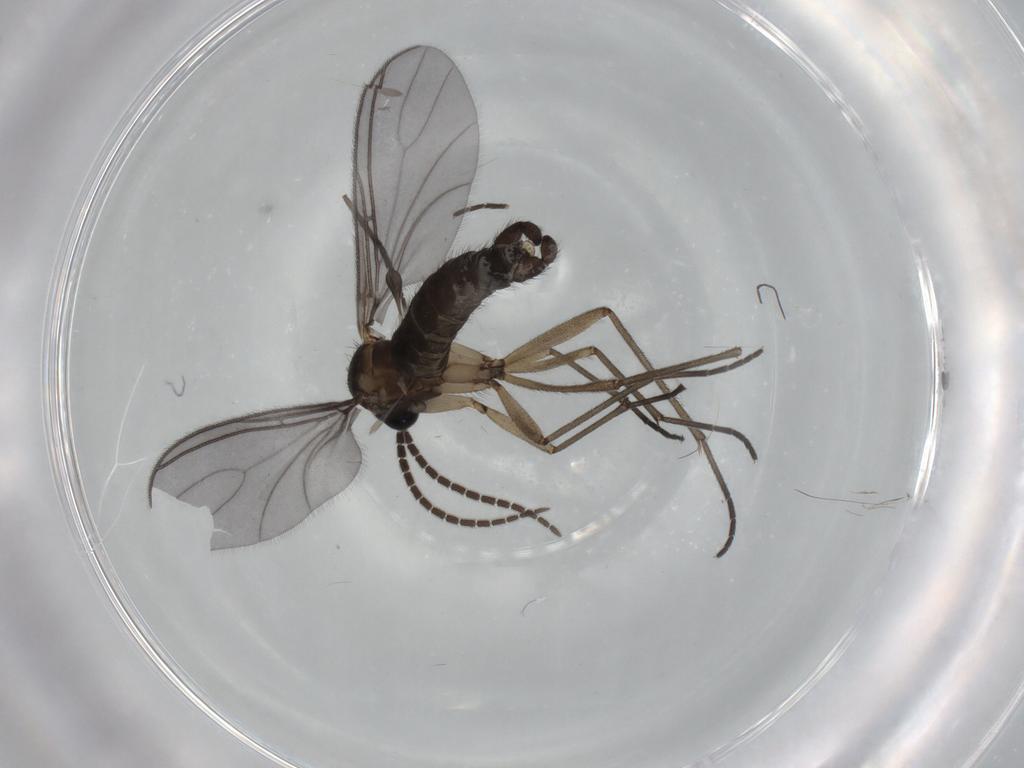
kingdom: Animalia
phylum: Arthropoda
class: Insecta
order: Diptera
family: Sciaridae
